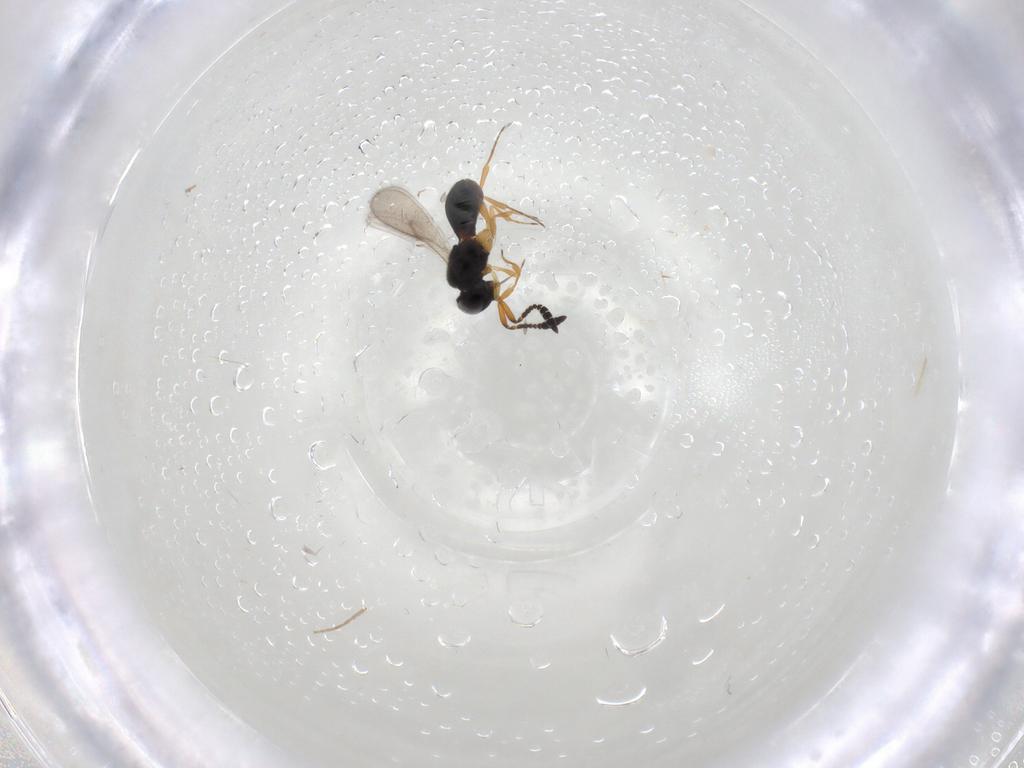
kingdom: Animalia
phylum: Arthropoda
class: Insecta
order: Hymenoptera
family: Scelionidae
